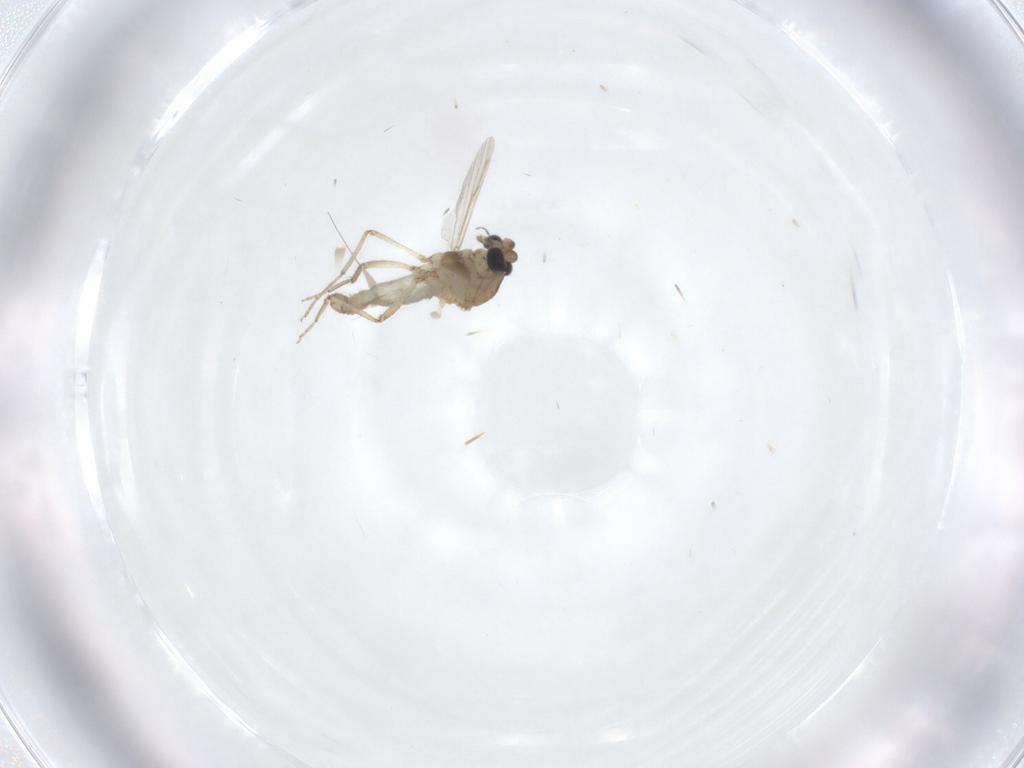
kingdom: Animalia
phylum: Arthropoda
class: Insecta
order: Diptera
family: Ceratopogonidae
